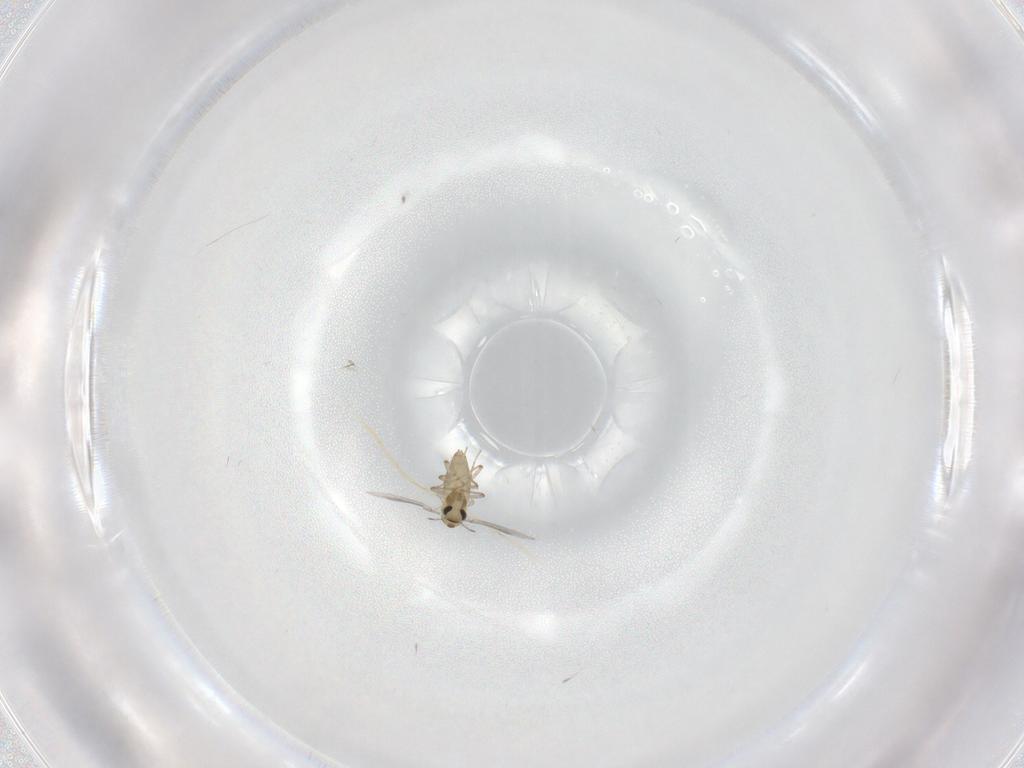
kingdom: Animalia
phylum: Arthropoda
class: Insecta
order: Diptera
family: Chironomidae
